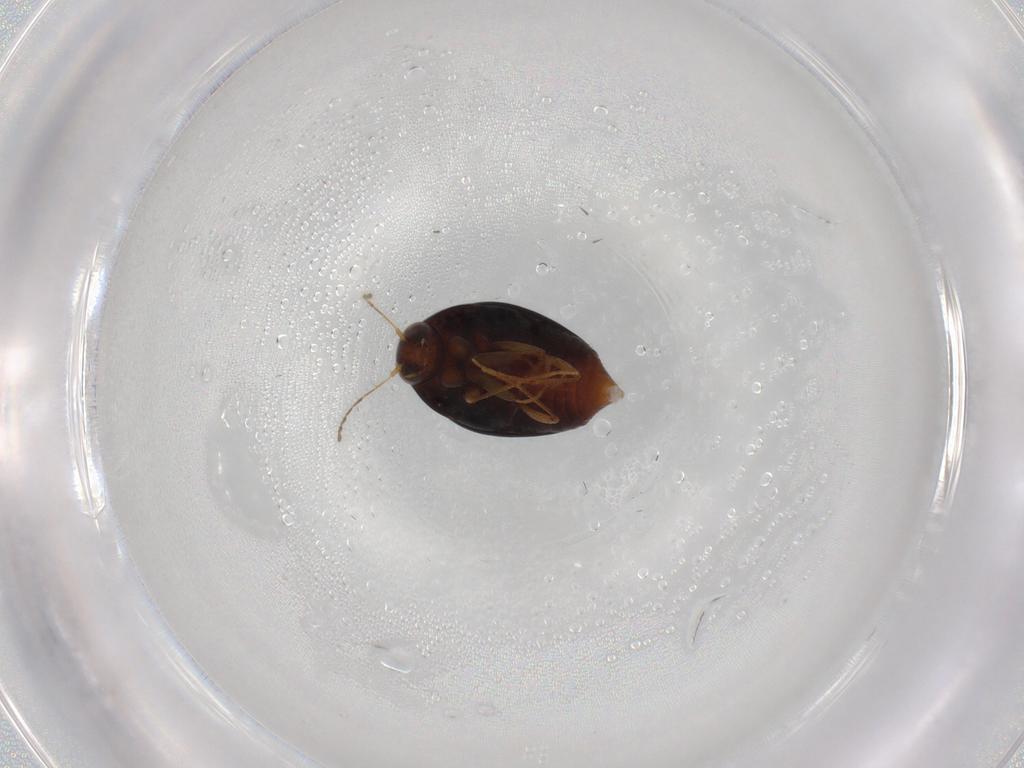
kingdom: Animalia
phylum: Arthropoda
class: Insecta
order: Coleoptera
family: Staphylinidae
